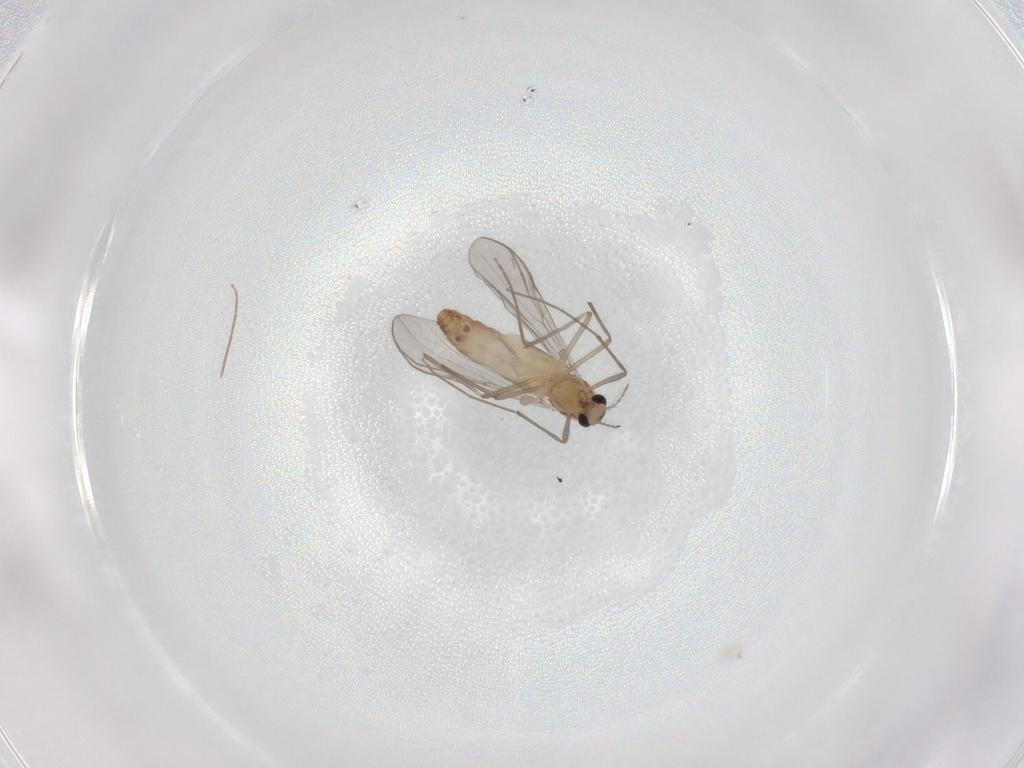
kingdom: Animalia
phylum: Arthropoda
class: Insecta
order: Diptera
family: Chironomidae
